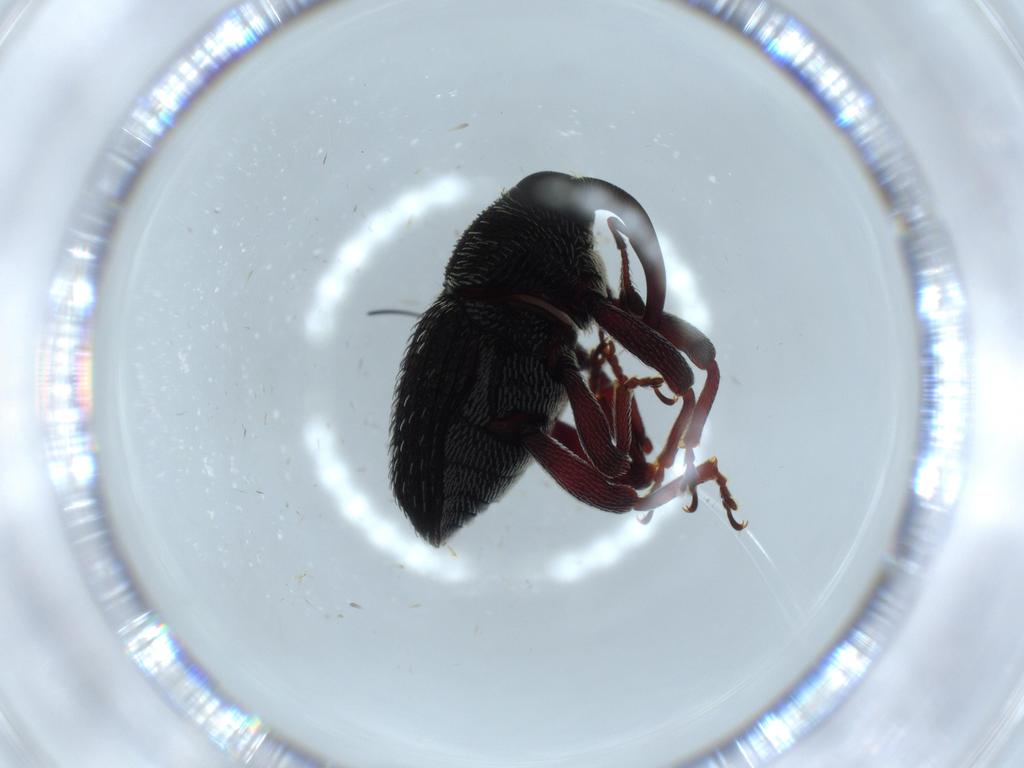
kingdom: Animalia
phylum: Arthropoda
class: Insecta
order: Coleoptera
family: Curculionidae
